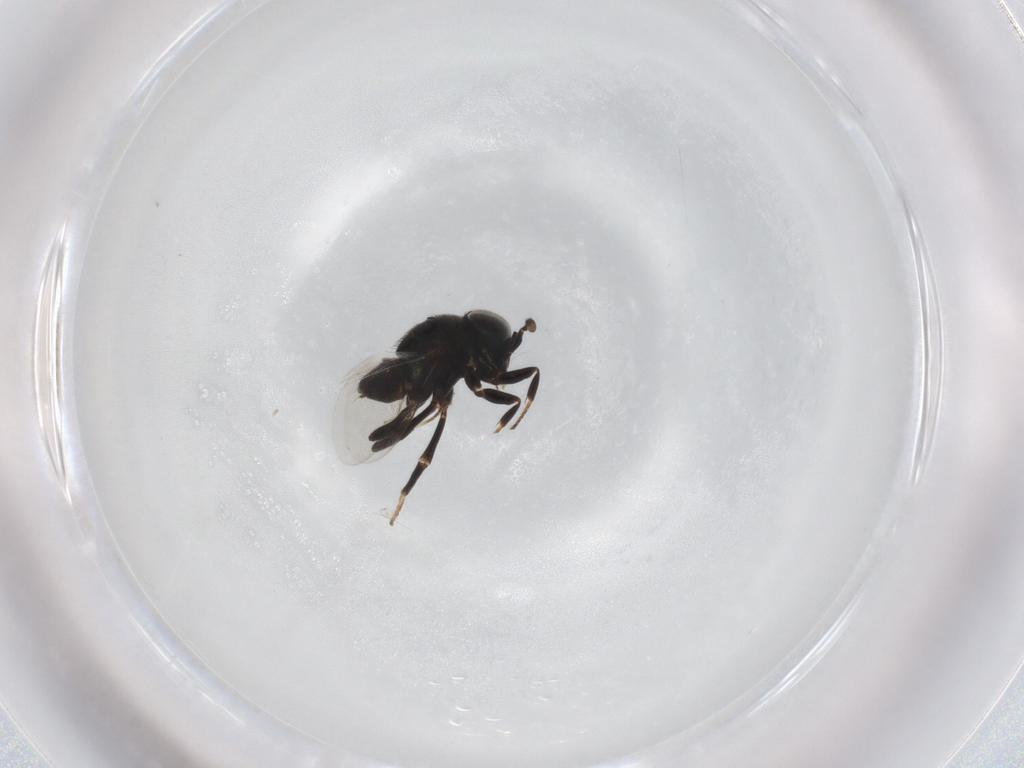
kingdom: Animalia
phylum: Arthropoda
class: Insecta
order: Hymenoptera
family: Encyrtidae
